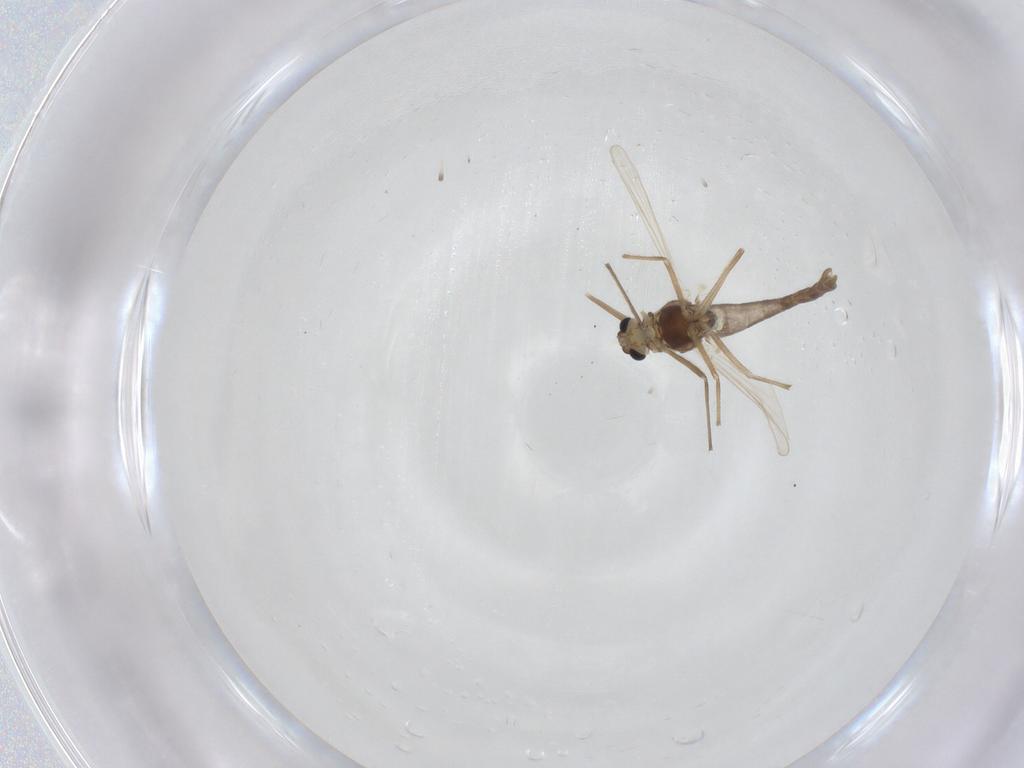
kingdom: Animalia
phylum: Arthropoda
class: Insecta
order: Diptera
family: Chironomidae
